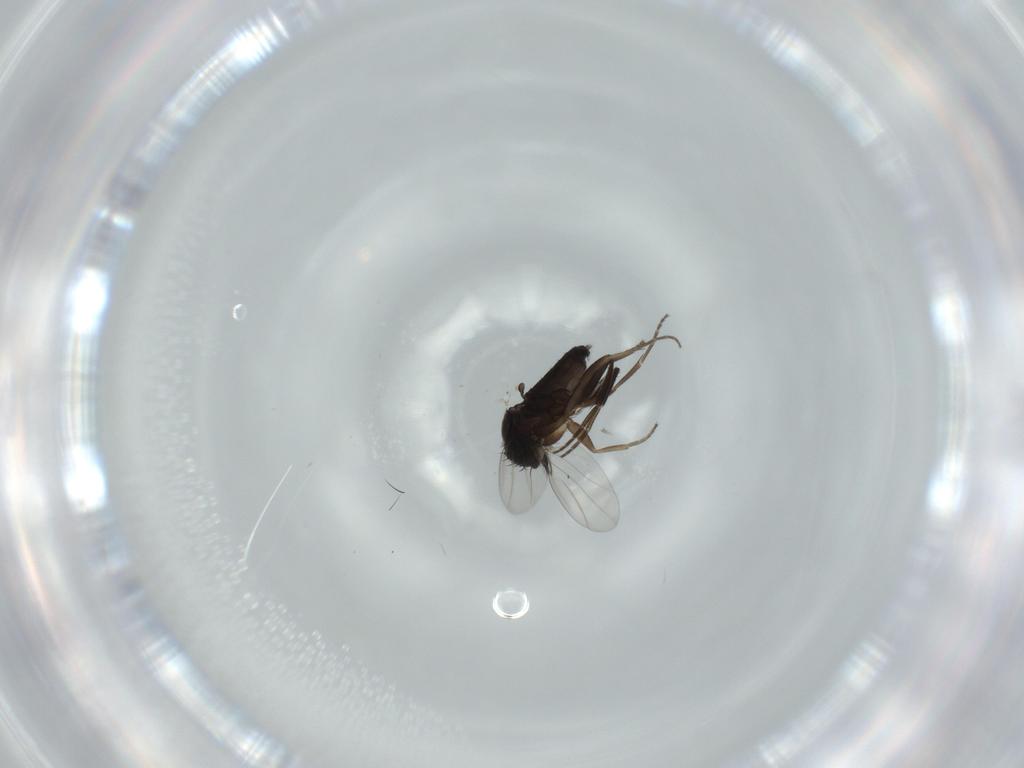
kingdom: Animalia
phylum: Arthropoda
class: Insecta
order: Diptera
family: Phoridae
